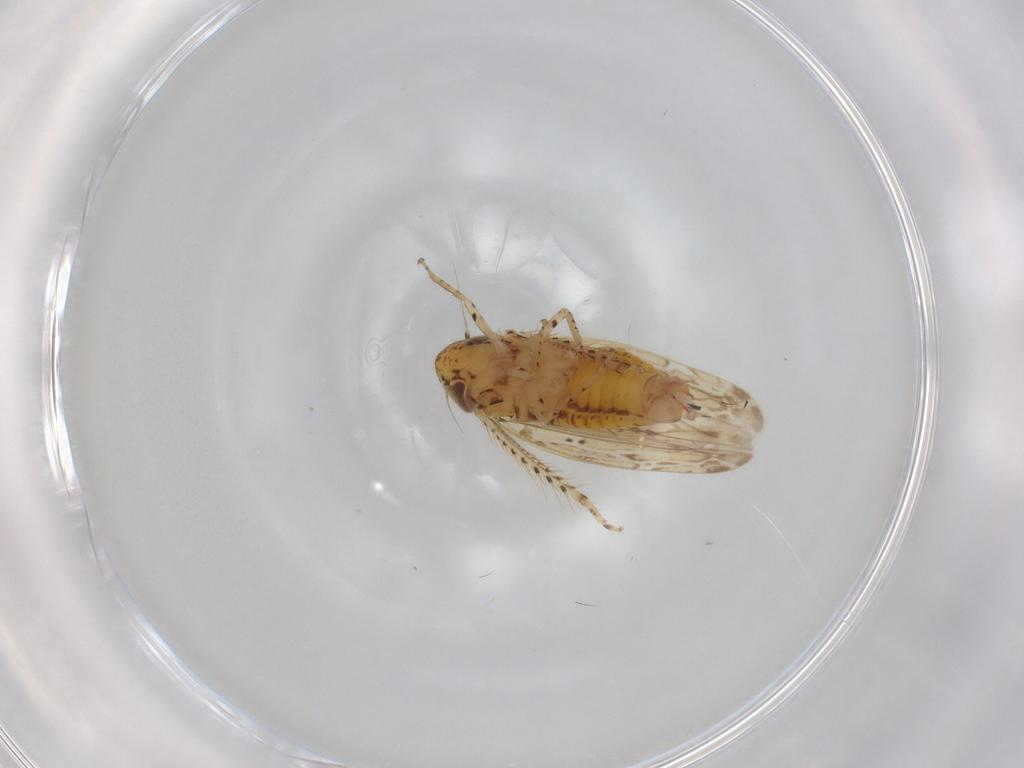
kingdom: Animalia
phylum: Arthropoda
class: Insecta
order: Hemiptera
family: Cicadellidae
